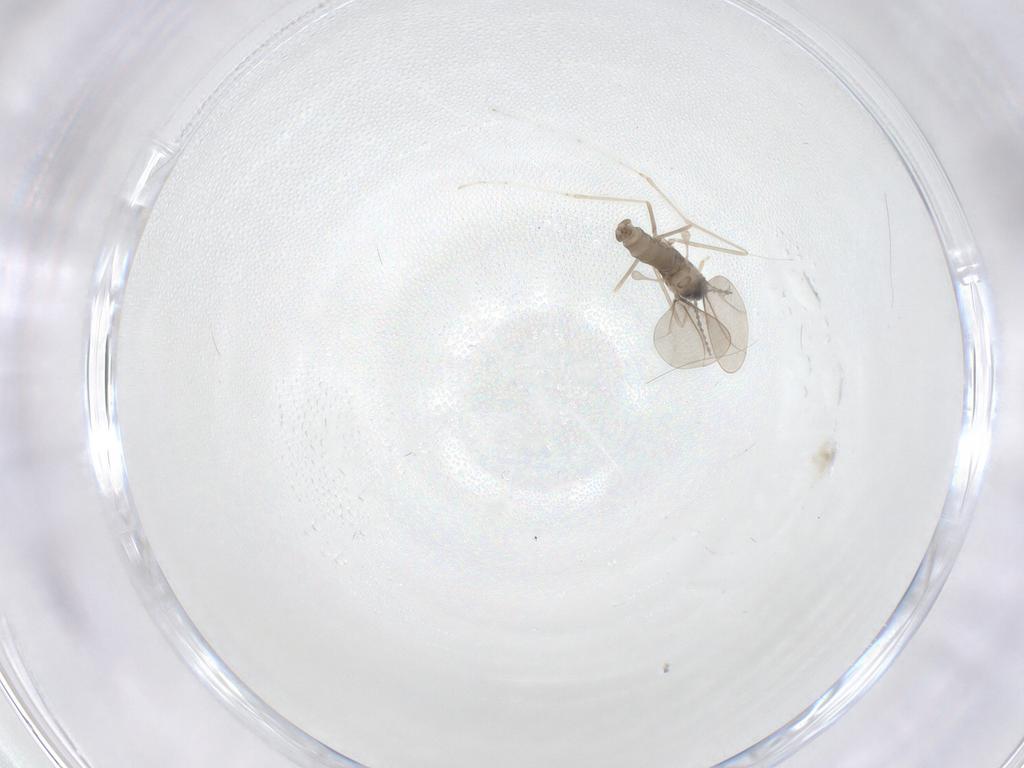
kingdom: Animalia
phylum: Arthropoda
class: Insecta
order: Diptera
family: Cecidomyiidae
